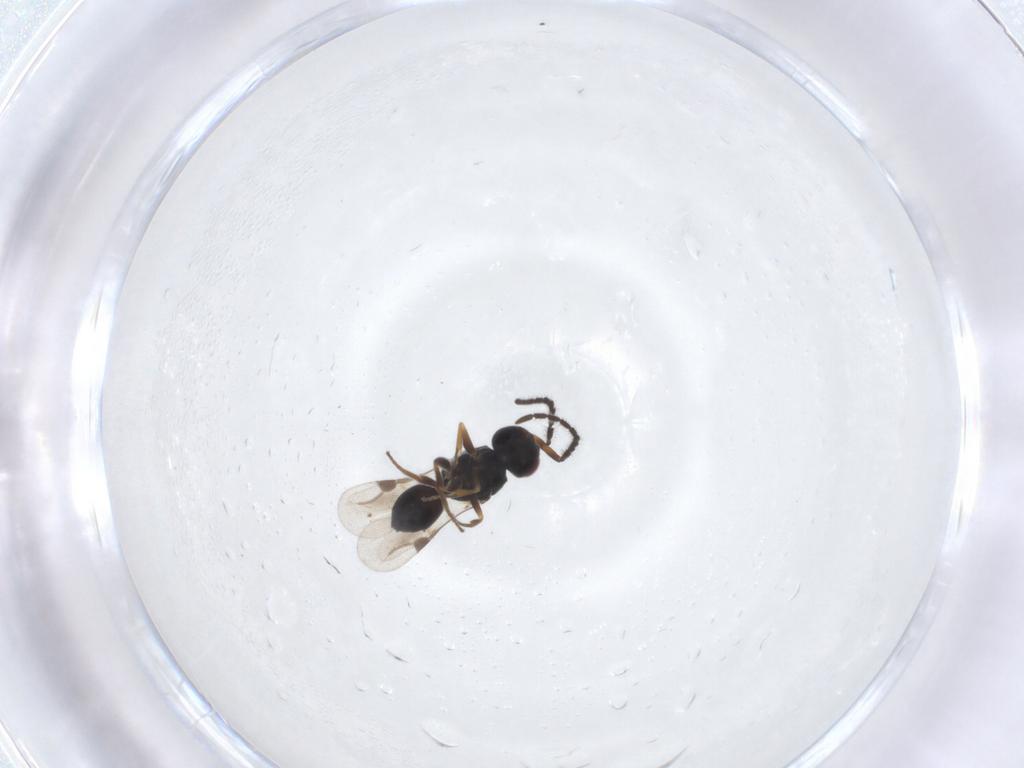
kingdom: Animalia
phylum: Arthropoda
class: Insecta
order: Hymenoptera
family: Braconidae
